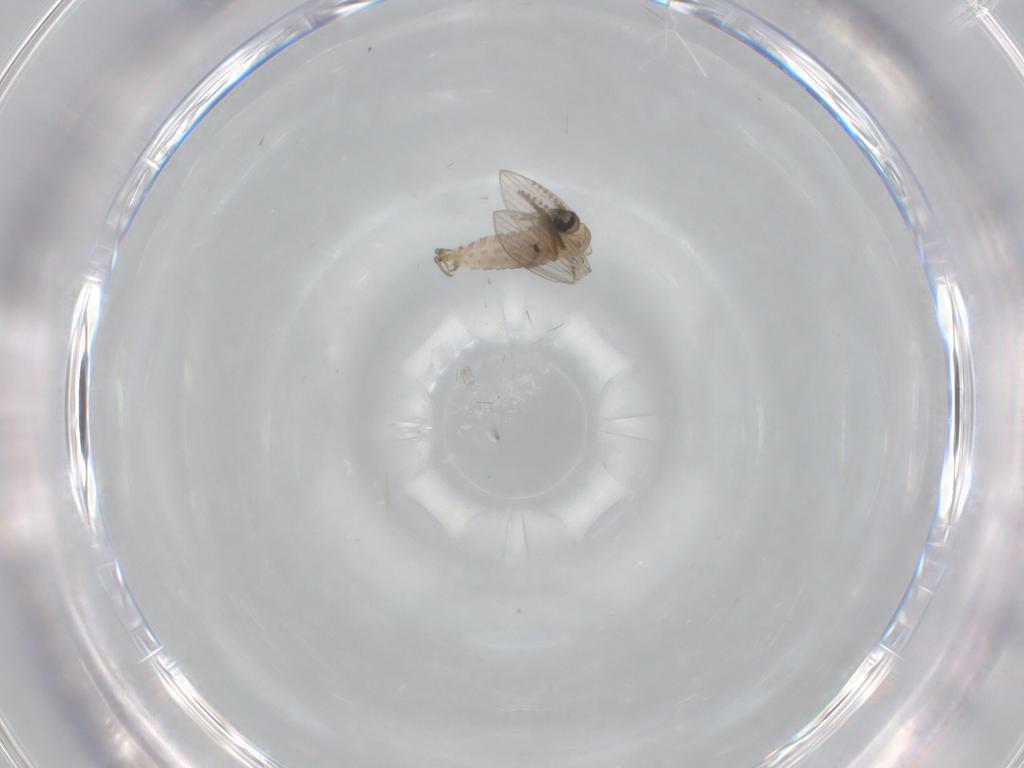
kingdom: Animalia
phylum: Arthropoda
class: Insecta
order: Diptera
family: Psychodidae
